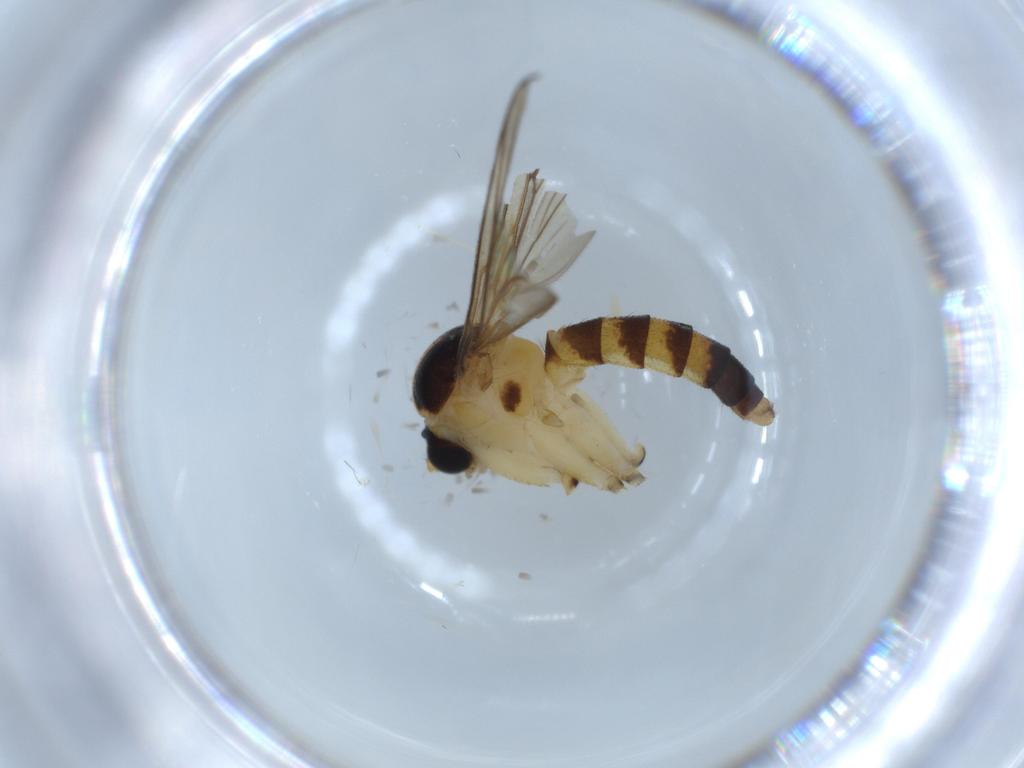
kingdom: Animalia
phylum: Arthropoda
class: Insecta
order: Diptera
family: Mycetophilidae
